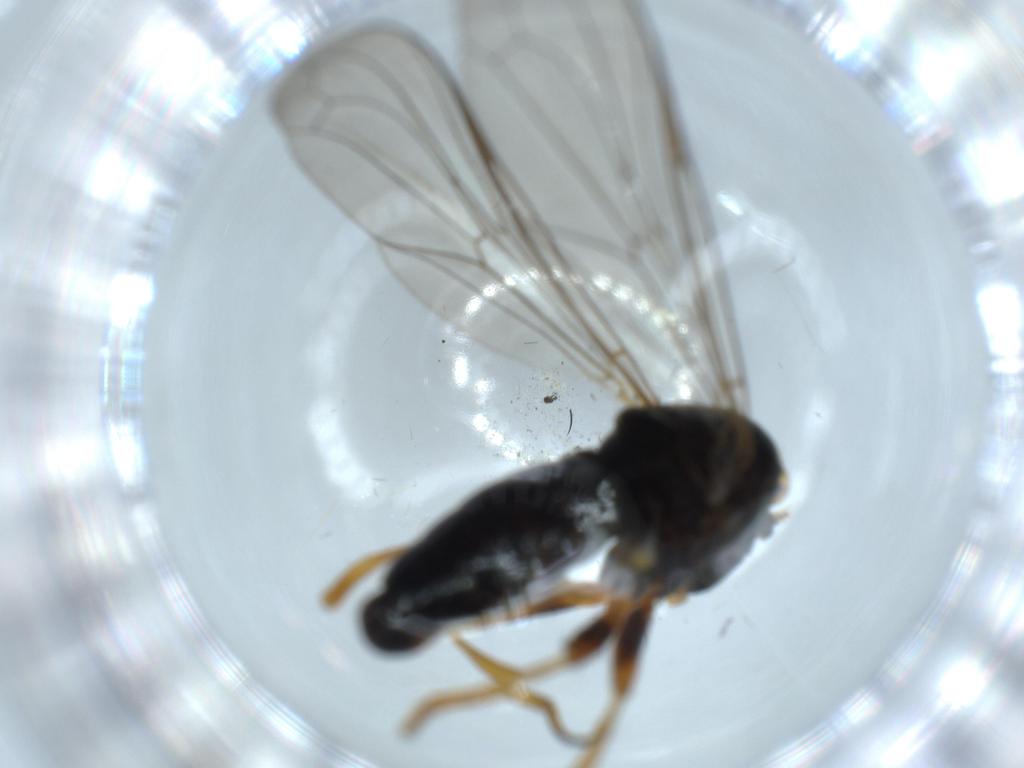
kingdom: Animalia
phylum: Arthropoda
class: Insecta
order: Diptera
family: Pipunculidae
